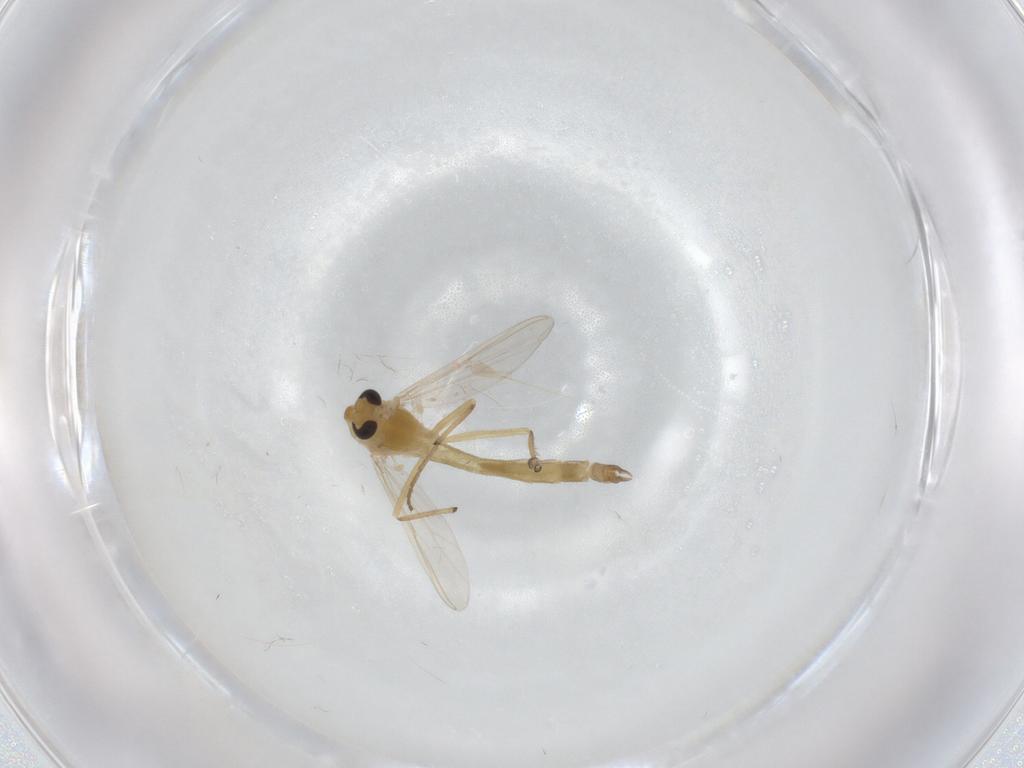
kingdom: Animalia
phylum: Arthropoda
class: Insecta
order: Diptera
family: Chironomidae
